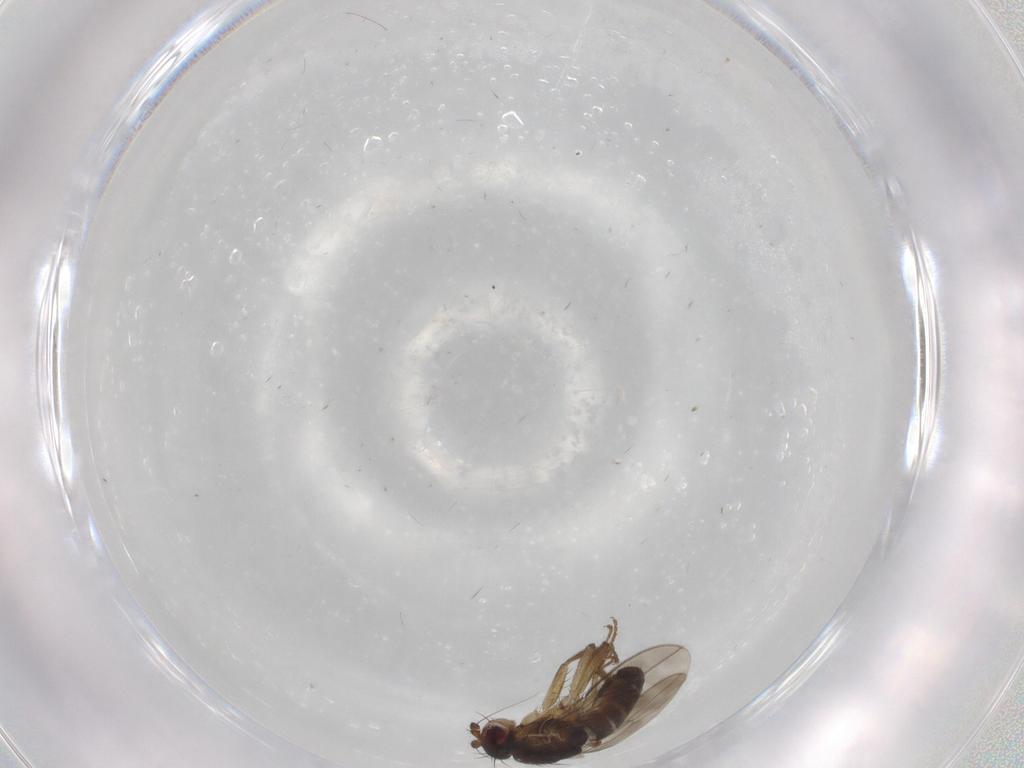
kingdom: Animalia
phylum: Arthropoda
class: Insecta
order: Diptera
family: Sphaeroceridae
